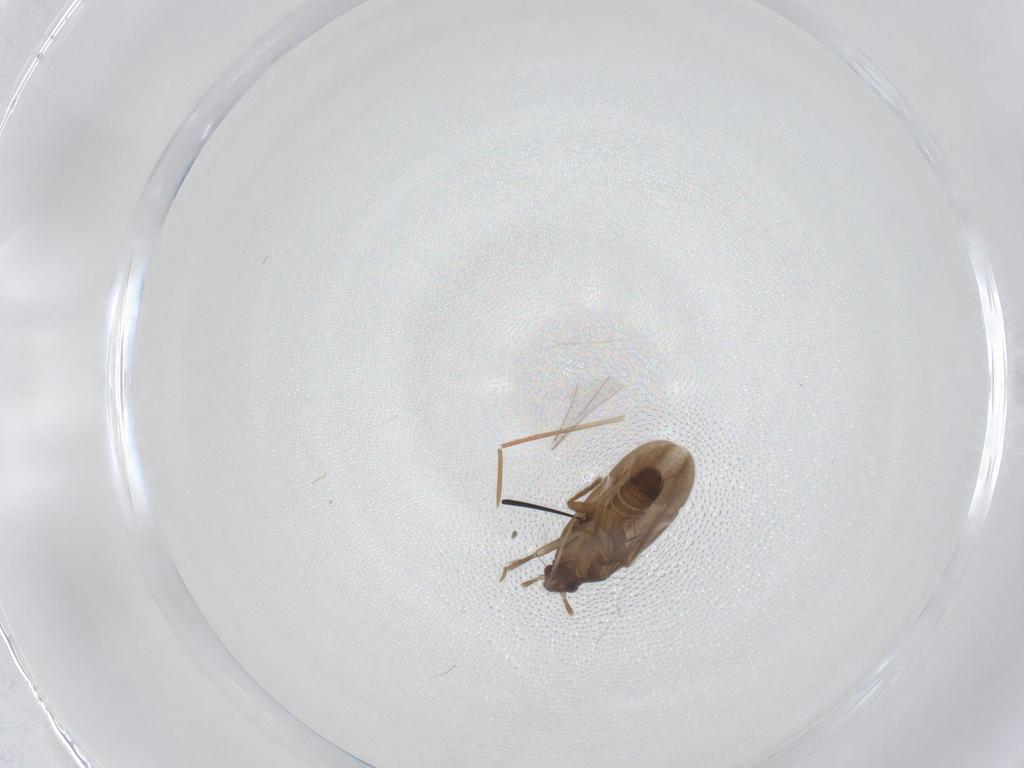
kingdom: Animalia
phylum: Arthropoda
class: Insecta
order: Hemiptera
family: Ceratocombidae
